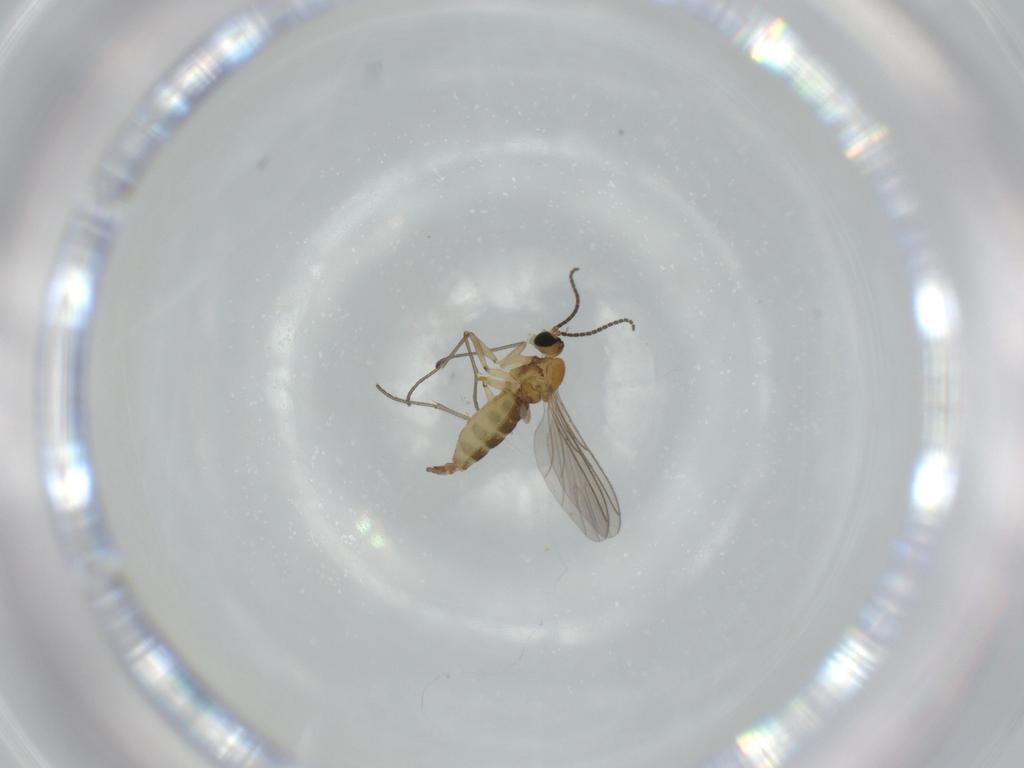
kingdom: Animalia
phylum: Arthropoda
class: Insecta
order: Diptera
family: Sciaridae
